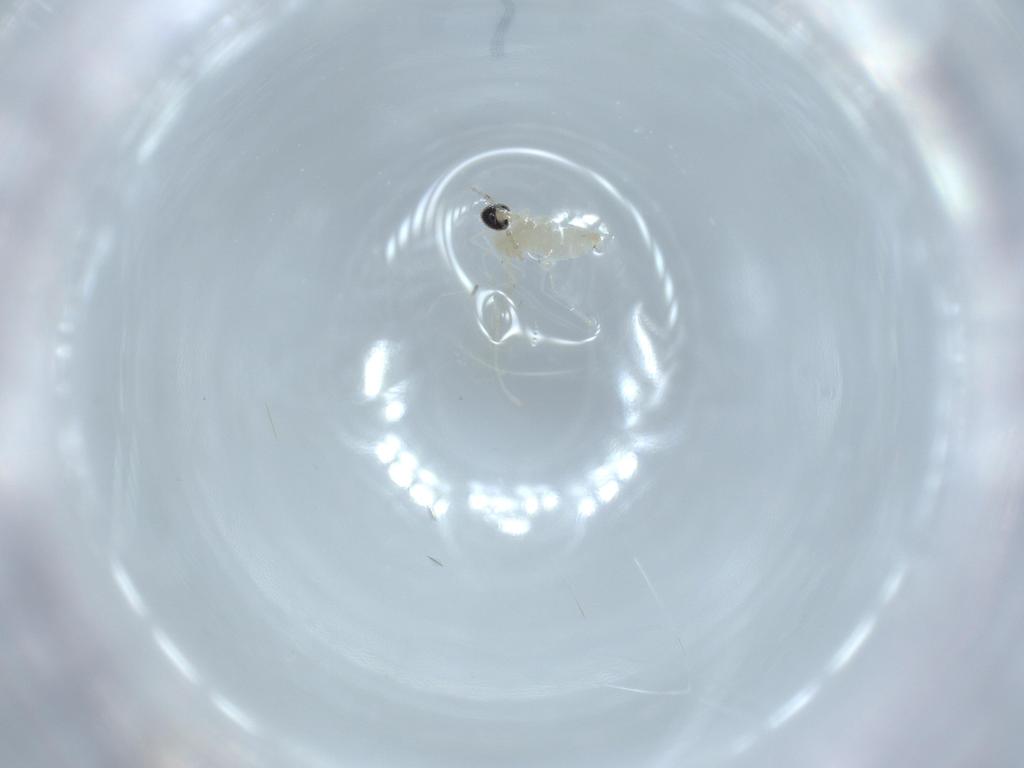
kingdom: Animalia
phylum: Arthropoda
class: Insecta
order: Diptera
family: Cecidomyiidae
